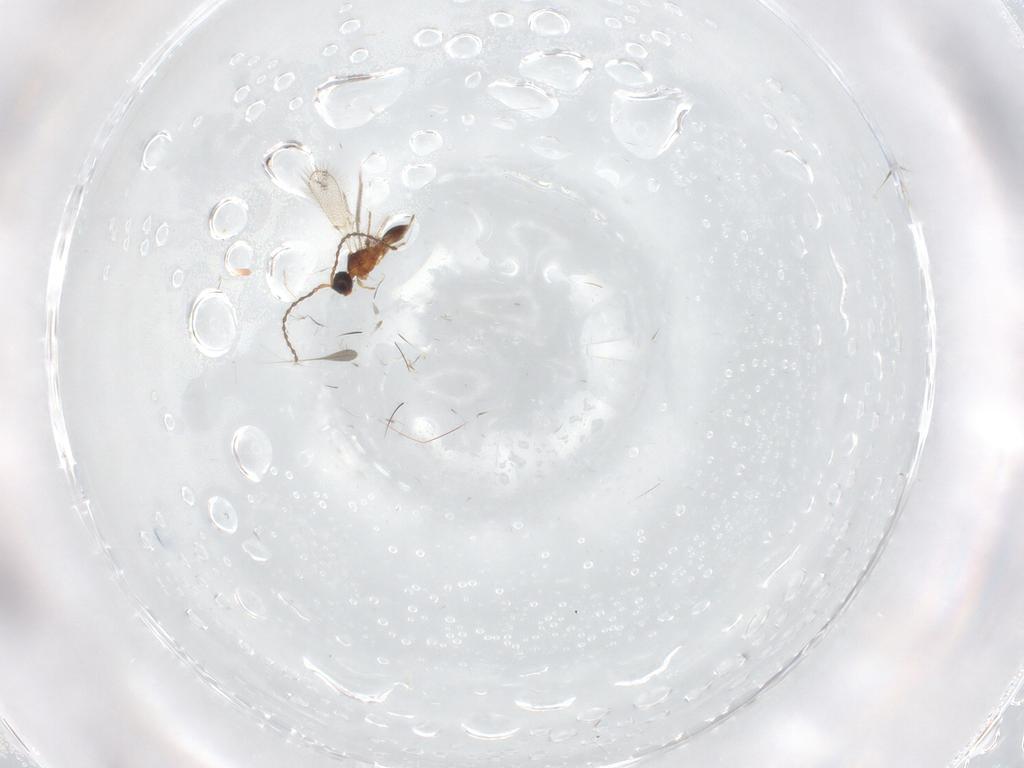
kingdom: Animalia
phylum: Arthropoda
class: Insecta
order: Hymenoptera
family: Diapriidae
